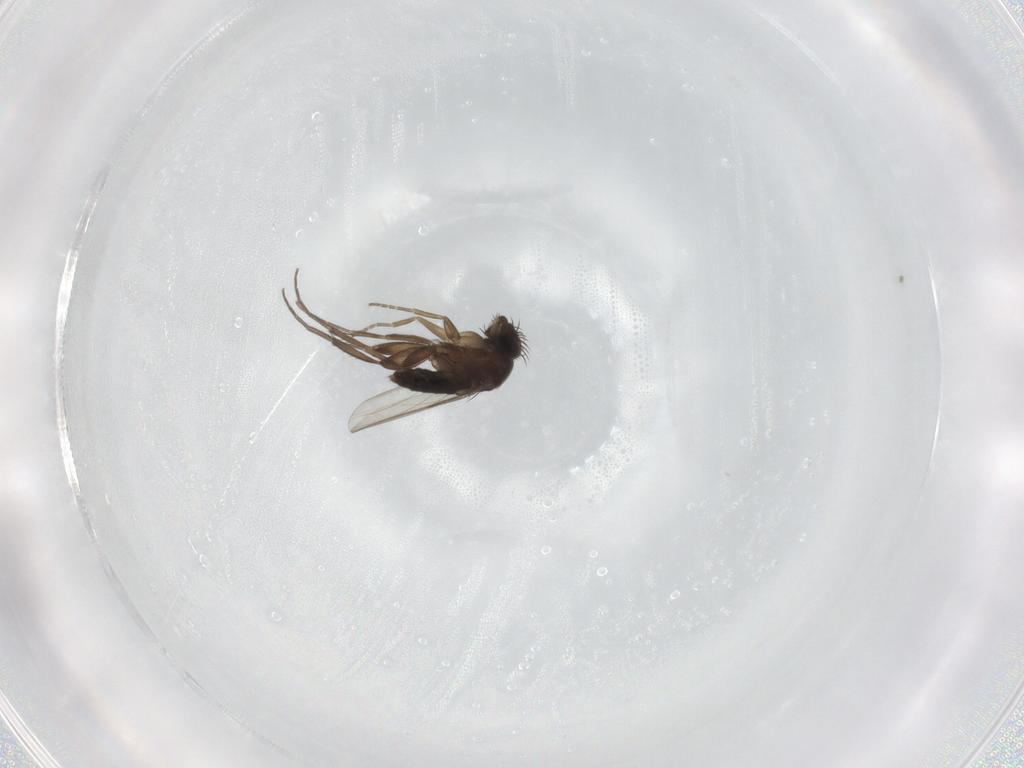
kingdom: Animalia
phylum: Arthropoda
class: Insecta
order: Diptera
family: Phoridae
